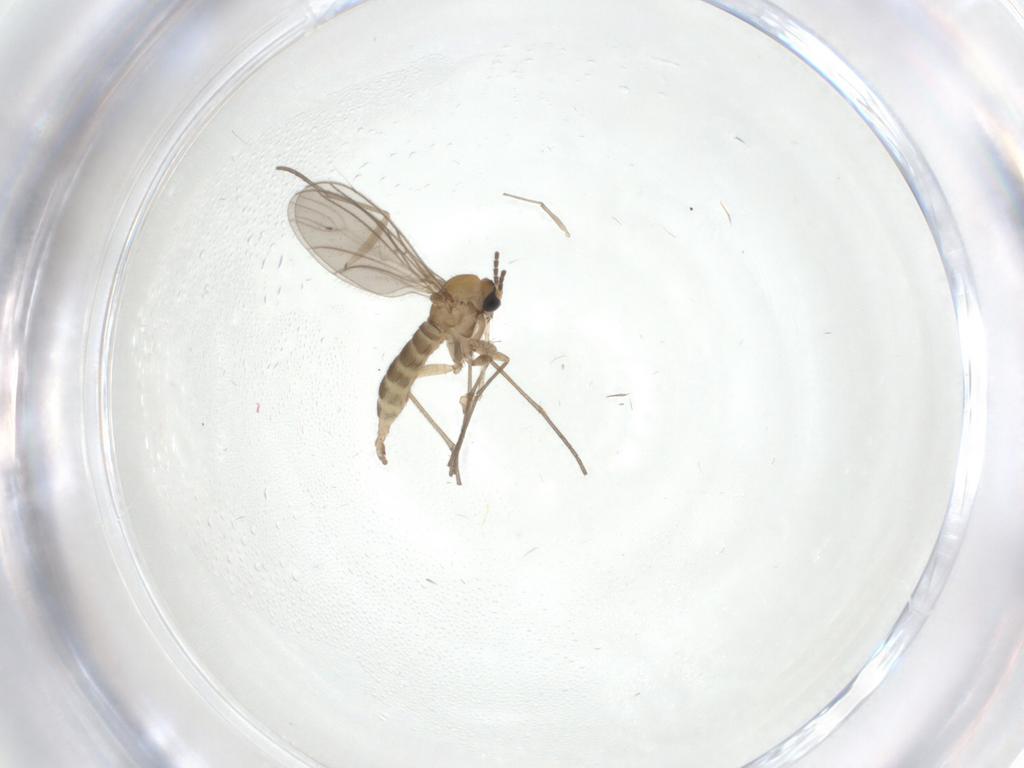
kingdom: Animalia
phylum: Arthropoda
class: Insecta
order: Diptera
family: Sciaridae
